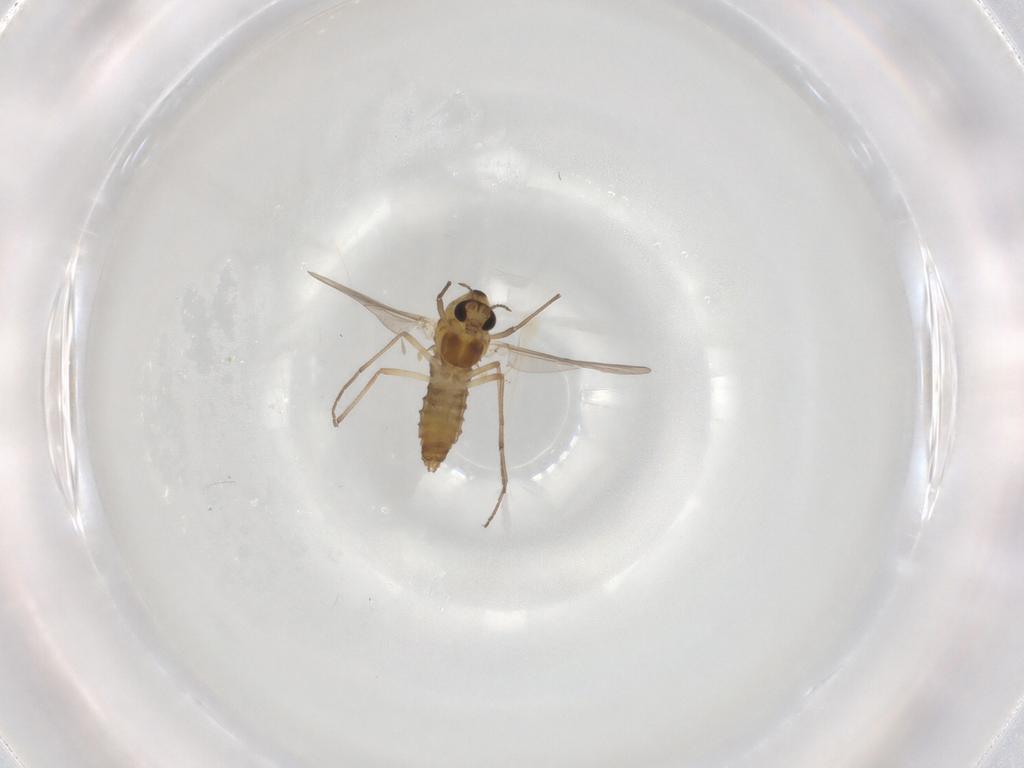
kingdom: Animalia
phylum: Arthropoda
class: Insecta
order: Diptera
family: Chironomidae
